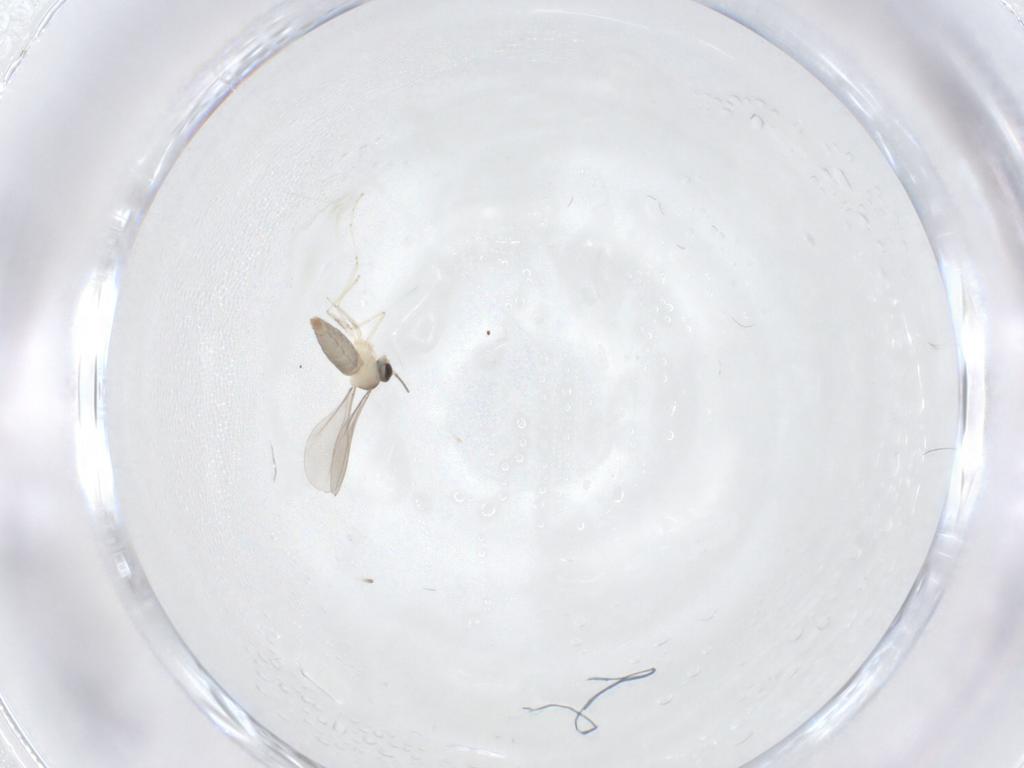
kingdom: Animalia
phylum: Arthropoda
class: Insecta
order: Diptera
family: Cecidomyiidae
